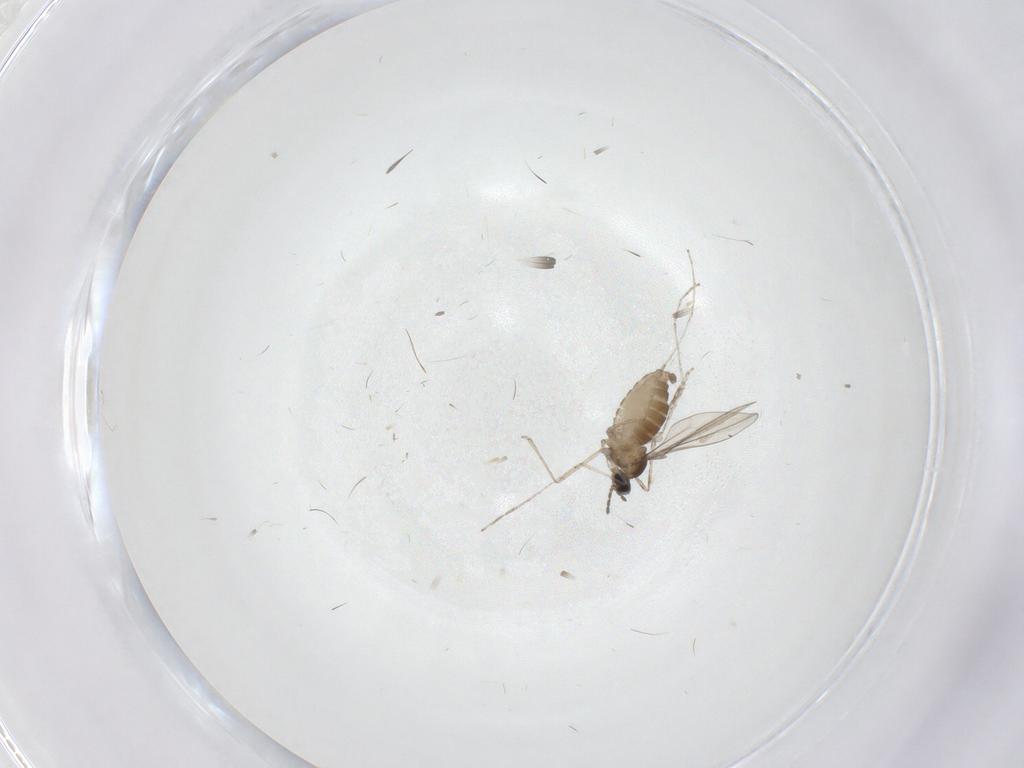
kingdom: Animalia
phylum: Arthropoda
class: Insecta
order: Diptera
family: Cecidomyiidae
